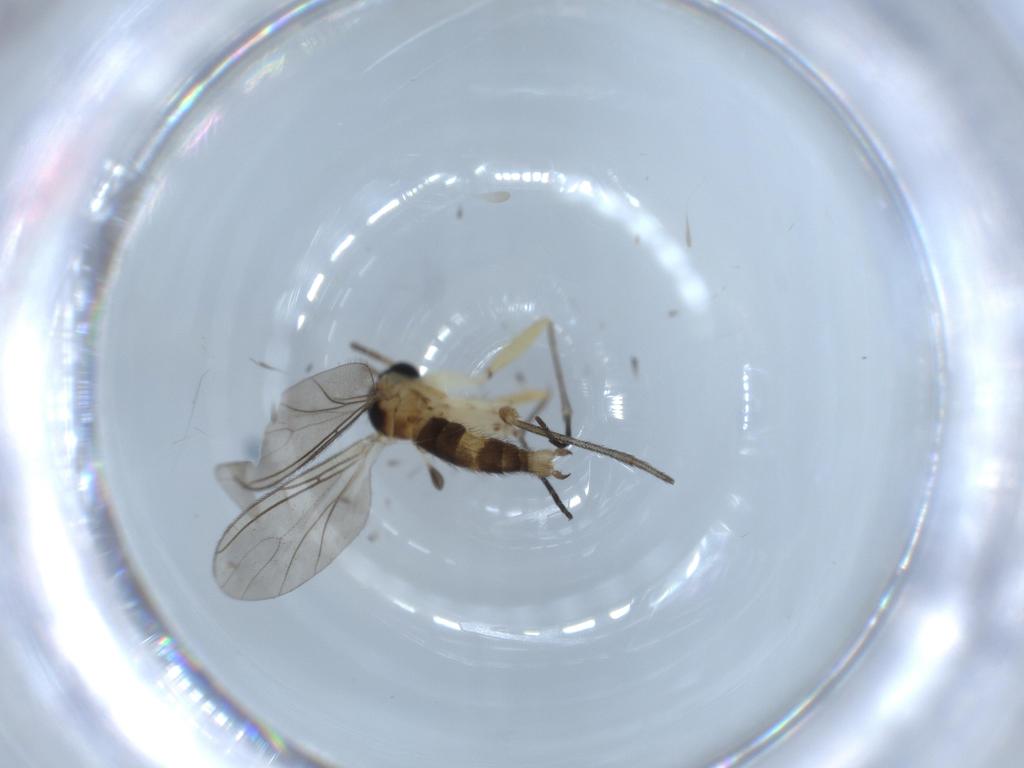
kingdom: Animalia
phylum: Arthropoda
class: Insecta
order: Diptera
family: Sciaridae
